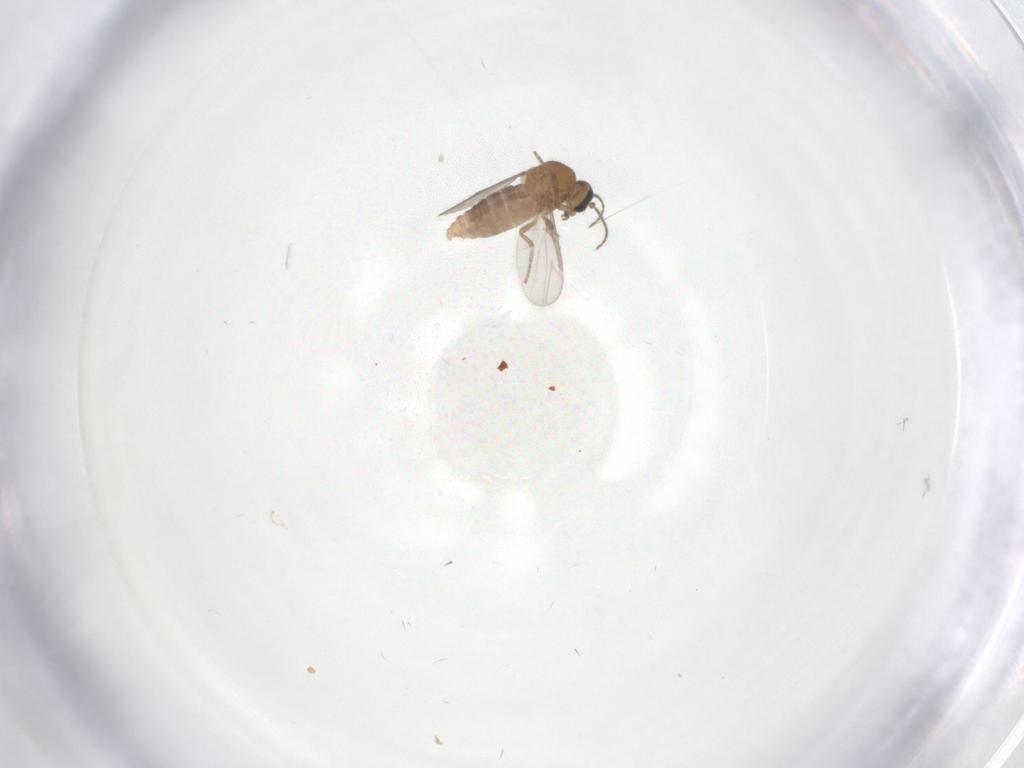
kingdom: Animalia
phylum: Arthropoda
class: Insecta
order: Diptera
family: Ceratopogonidae
